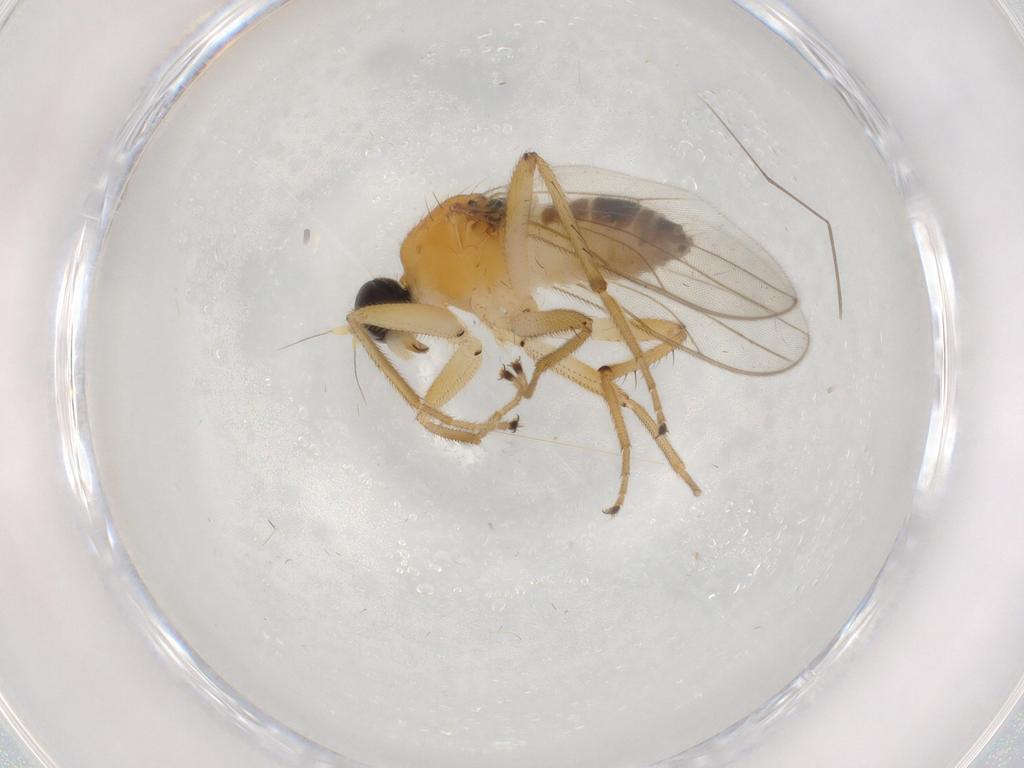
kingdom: Animalia
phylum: Arthropoda
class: Insecta
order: Diptera
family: Hybotidae
